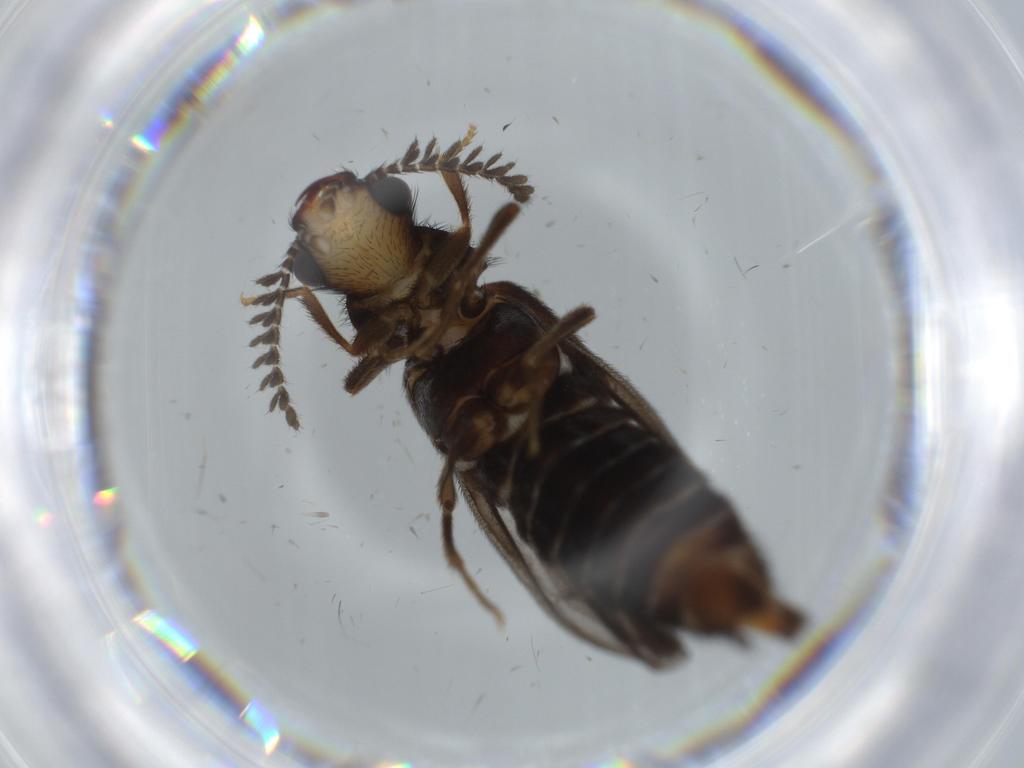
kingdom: Animalia
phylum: Arthropoda
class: Insecta
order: Coleoptera
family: Phengodidae
